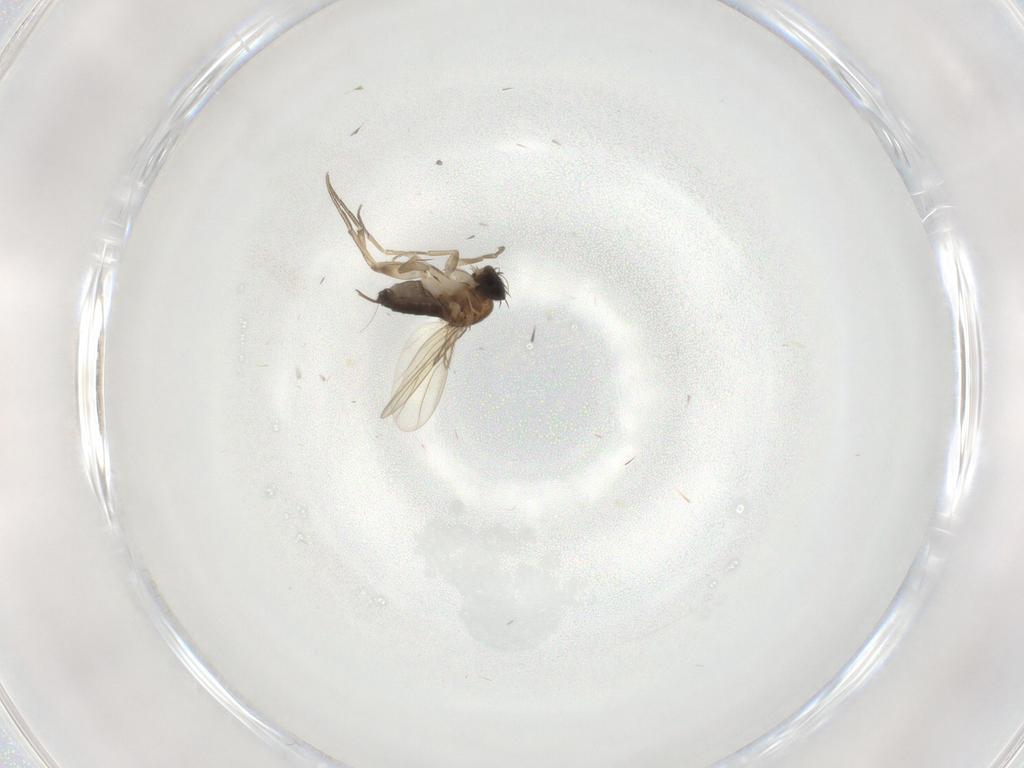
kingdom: Animalia
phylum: Arthropoda
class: Insecta
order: Diptera
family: Phoridae
